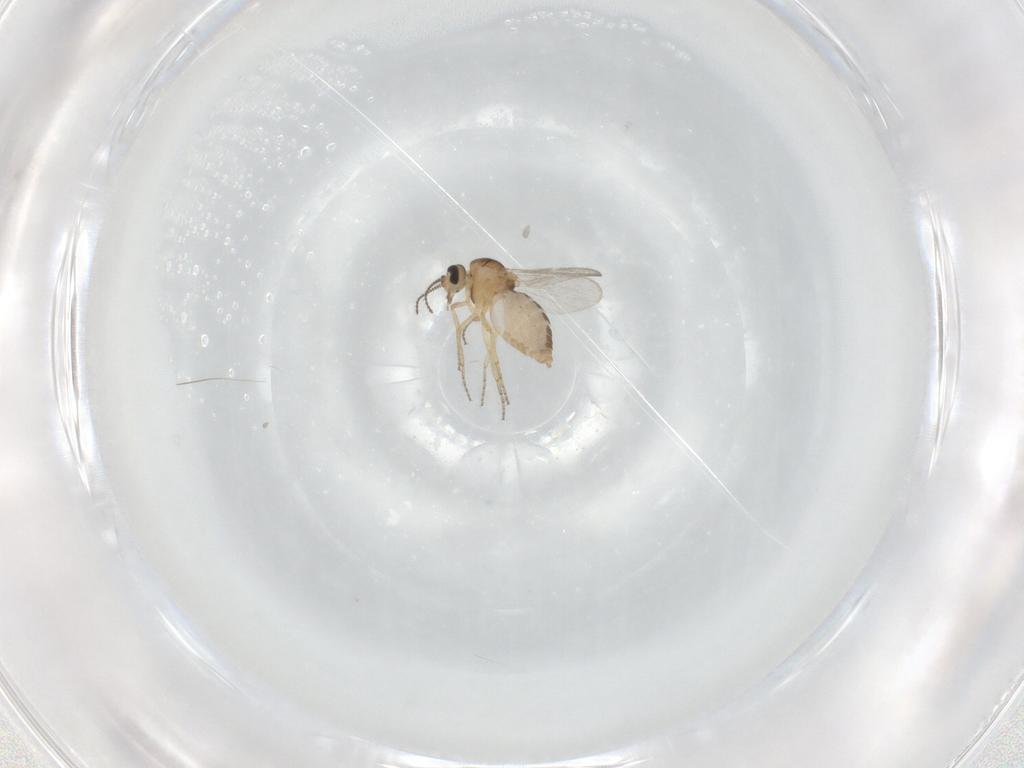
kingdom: Animalia
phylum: Arthropoda
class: Insecta
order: Diptera
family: Ceratopogonidae
